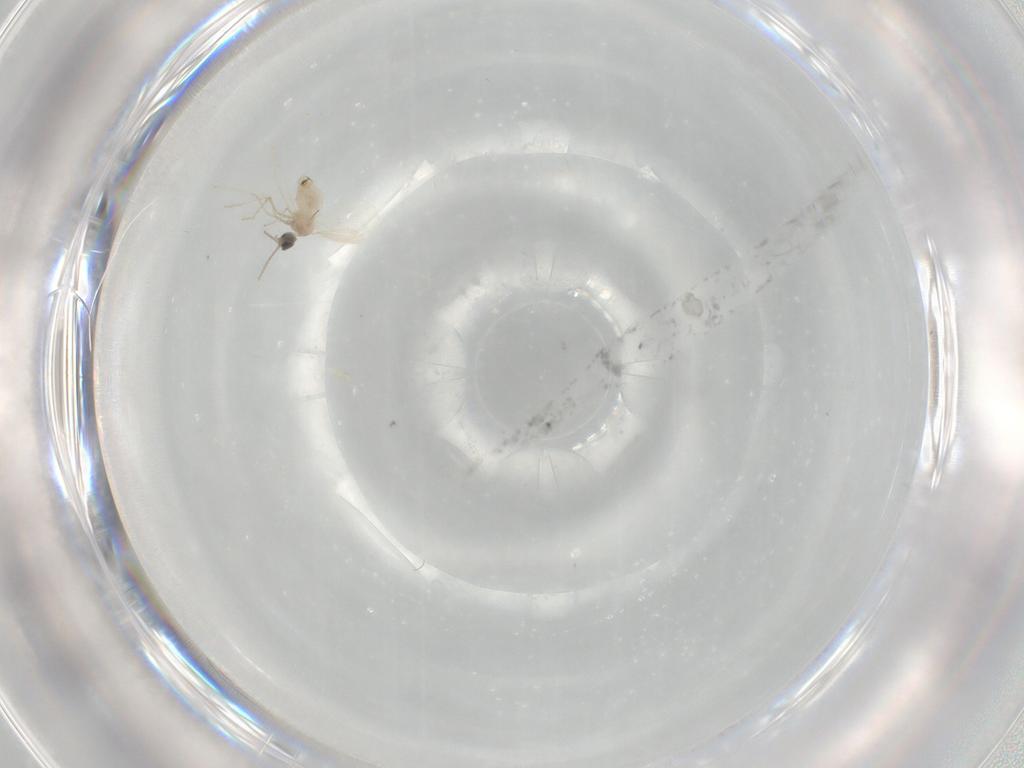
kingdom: Animalia
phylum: Arthropoda
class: Insecta
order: Diptera
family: Cecidomyiidae
